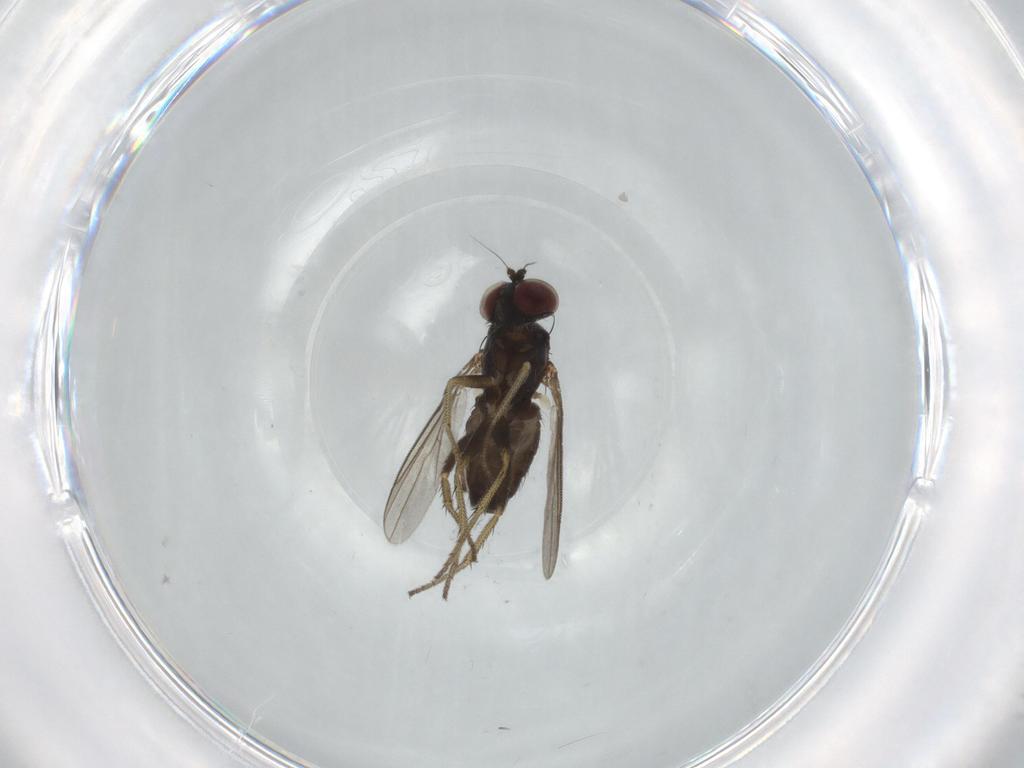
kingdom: Animalia
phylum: Arthropoda
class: Insecta
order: Diptera
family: Dolichopodidae
